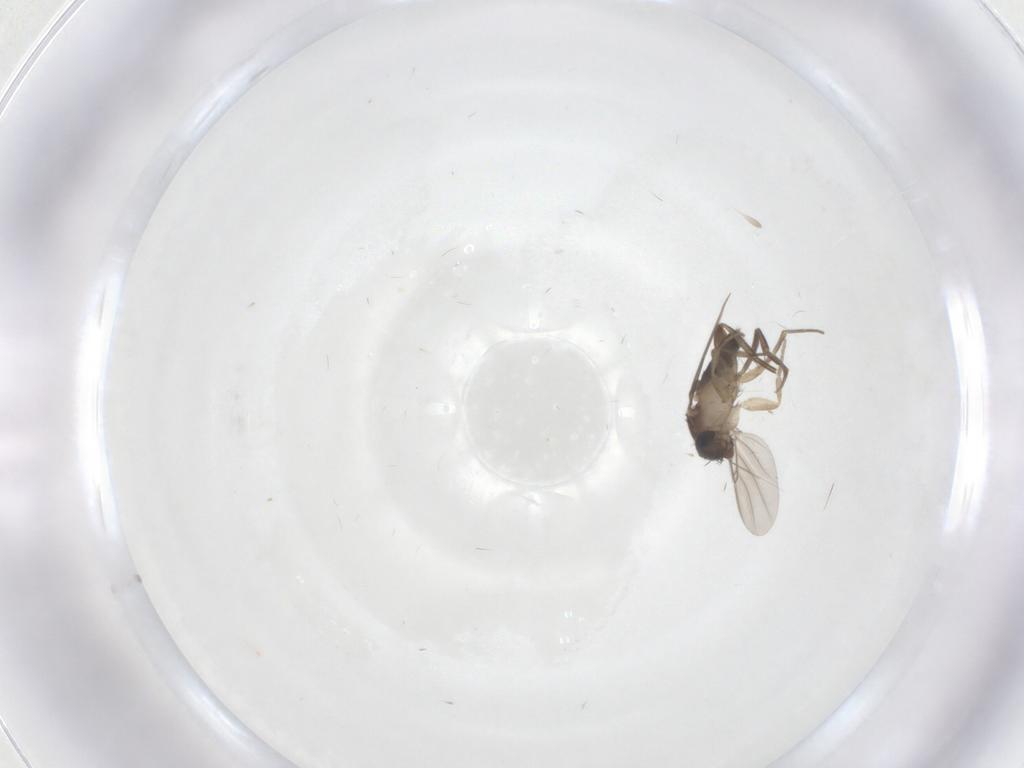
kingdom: Animalia
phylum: Arthropoda
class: Insecta
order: Diptera
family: Phoridae
